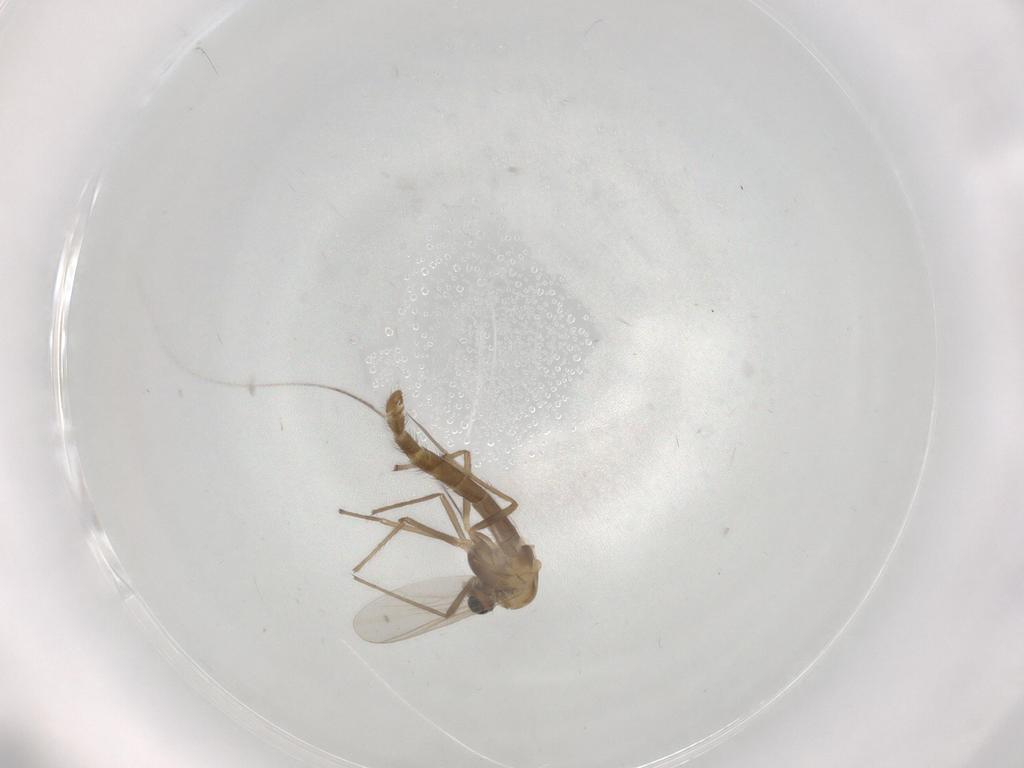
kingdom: Animalia
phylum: Arthropoda
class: Insecta
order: Diptera
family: Chironomidae
